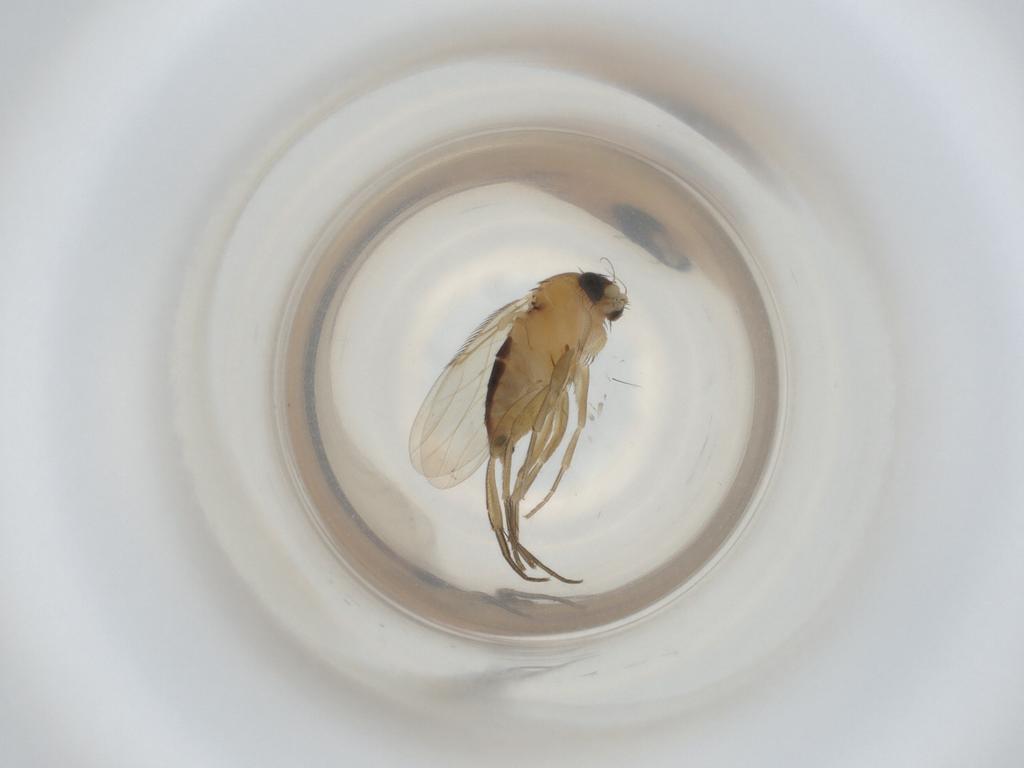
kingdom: Animalia
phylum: Arthropoda
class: Insecta
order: Diptera
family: Phoridae
